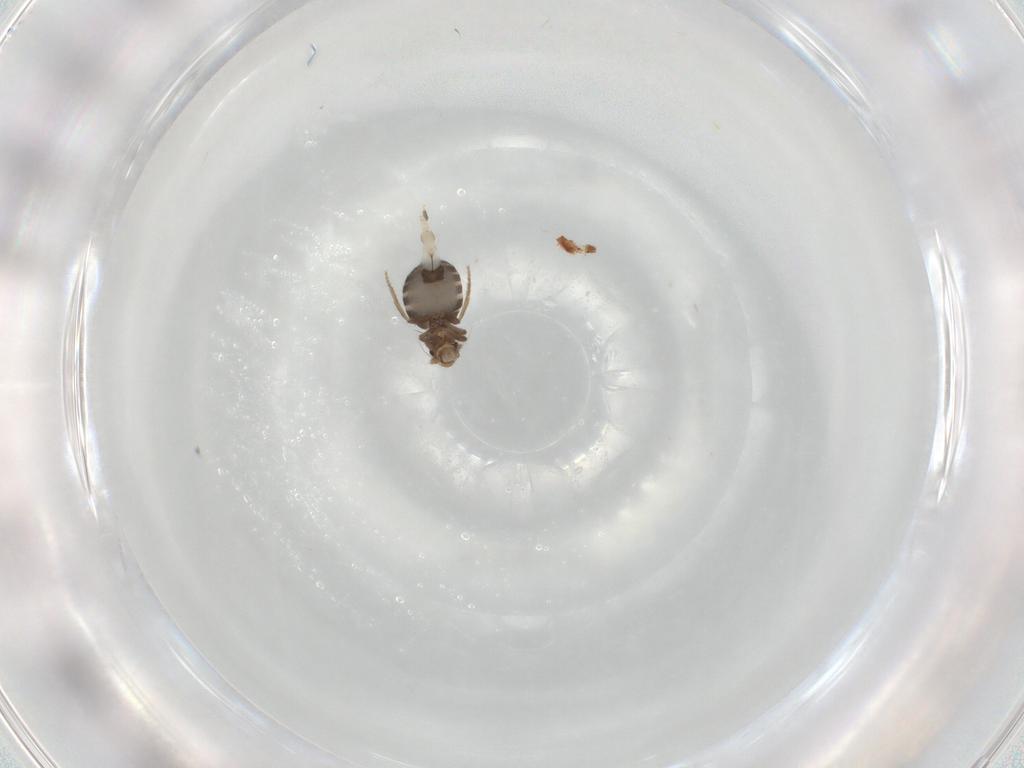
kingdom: Animalia
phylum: Arthropoda
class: Insecta
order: Diptera
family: Phoridae
